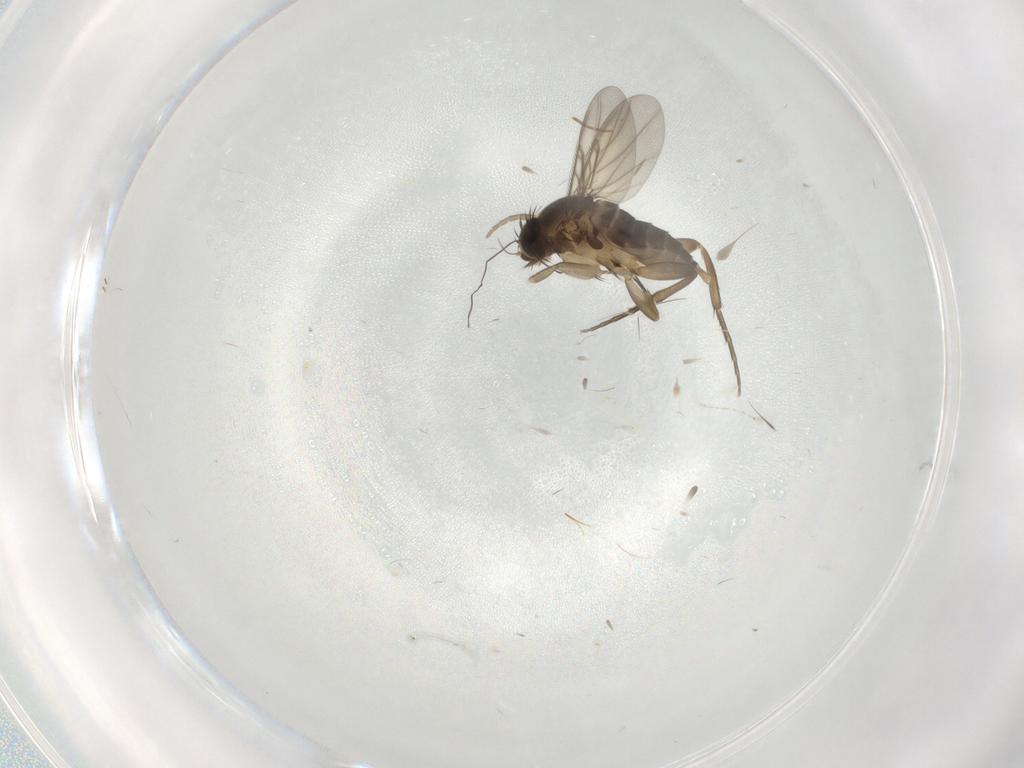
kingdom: Animalia
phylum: Arthropoda
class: Insecta
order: Diptera
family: Phoridae
